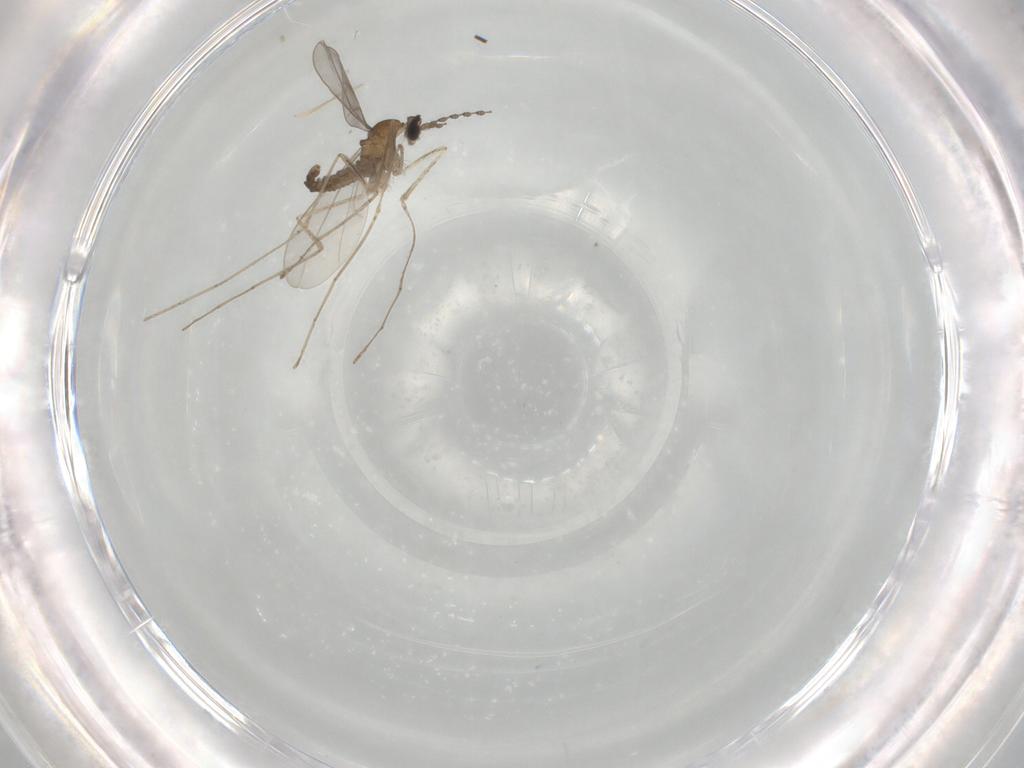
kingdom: Animalia
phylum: Arthropoda
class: Insecta
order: Diptera
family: Cecidomyiidae
